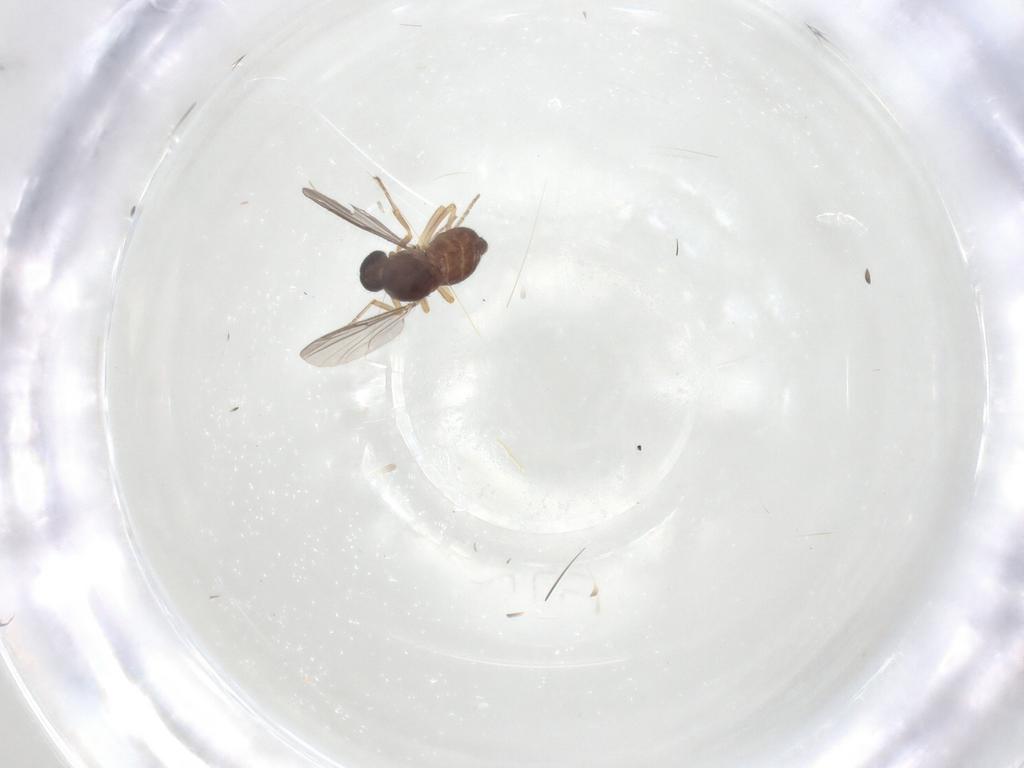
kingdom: Animalia
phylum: Arthropoda
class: Insecta
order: Diptera
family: Ceratopogonidae
